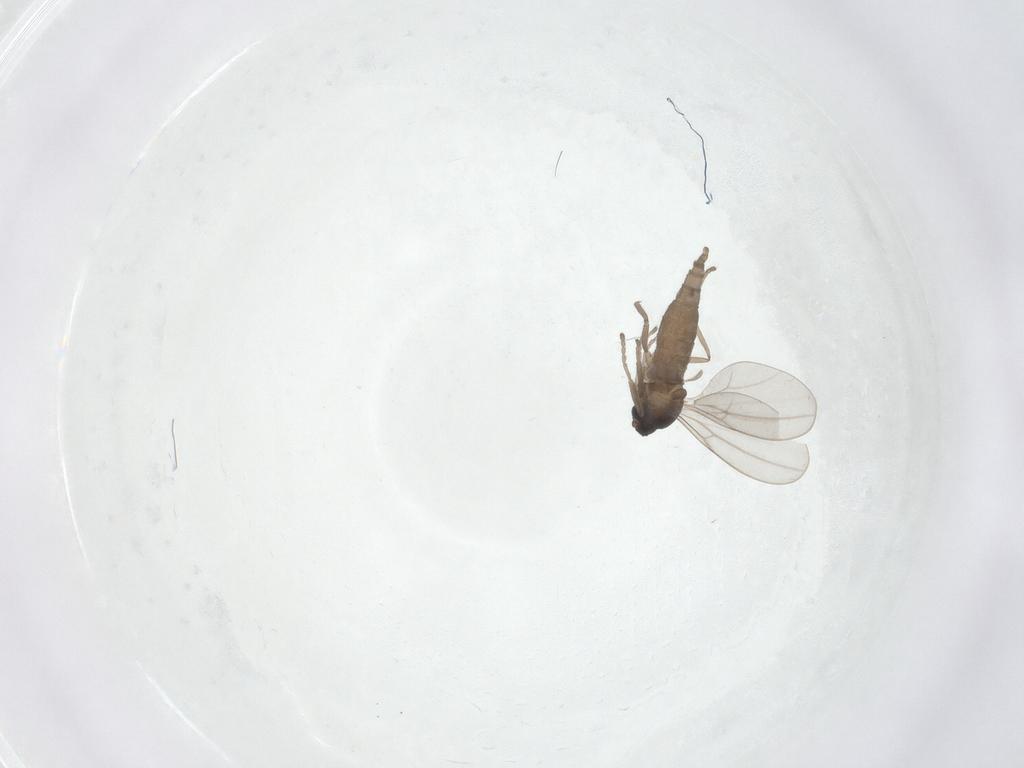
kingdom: Animalia
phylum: Arthropoda
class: Insecta
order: Diptera
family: Cecidomyiidae
